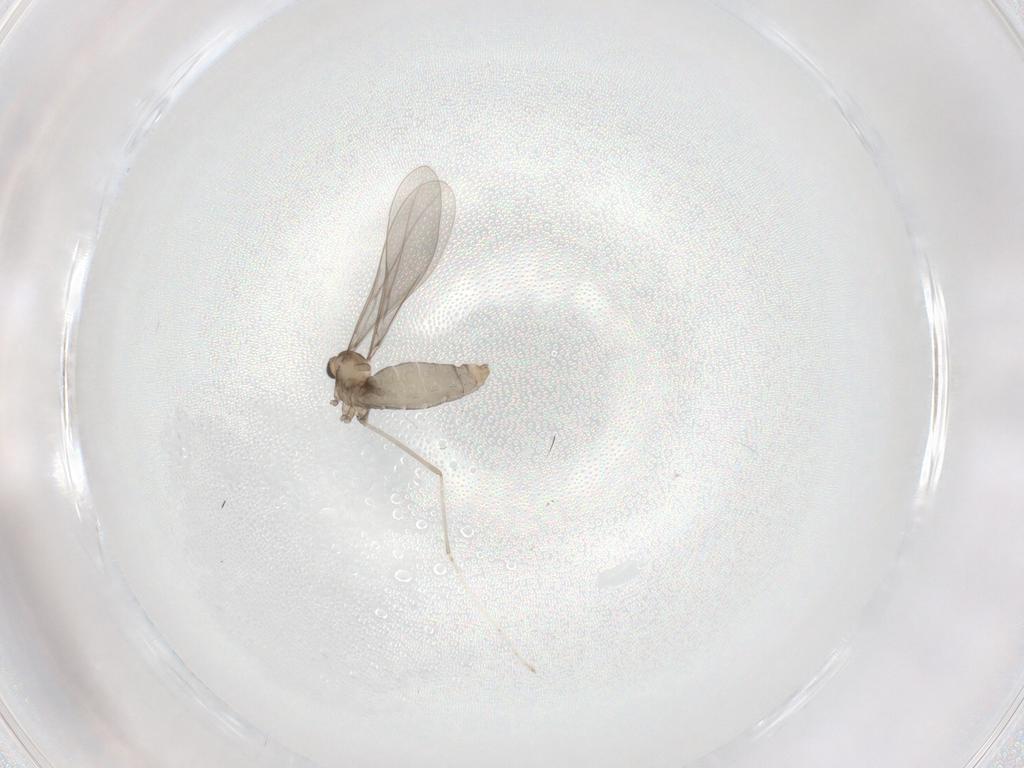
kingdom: Animalia
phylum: Arthropoda
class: Insecta
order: Diptera
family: Cecidomyiidae
